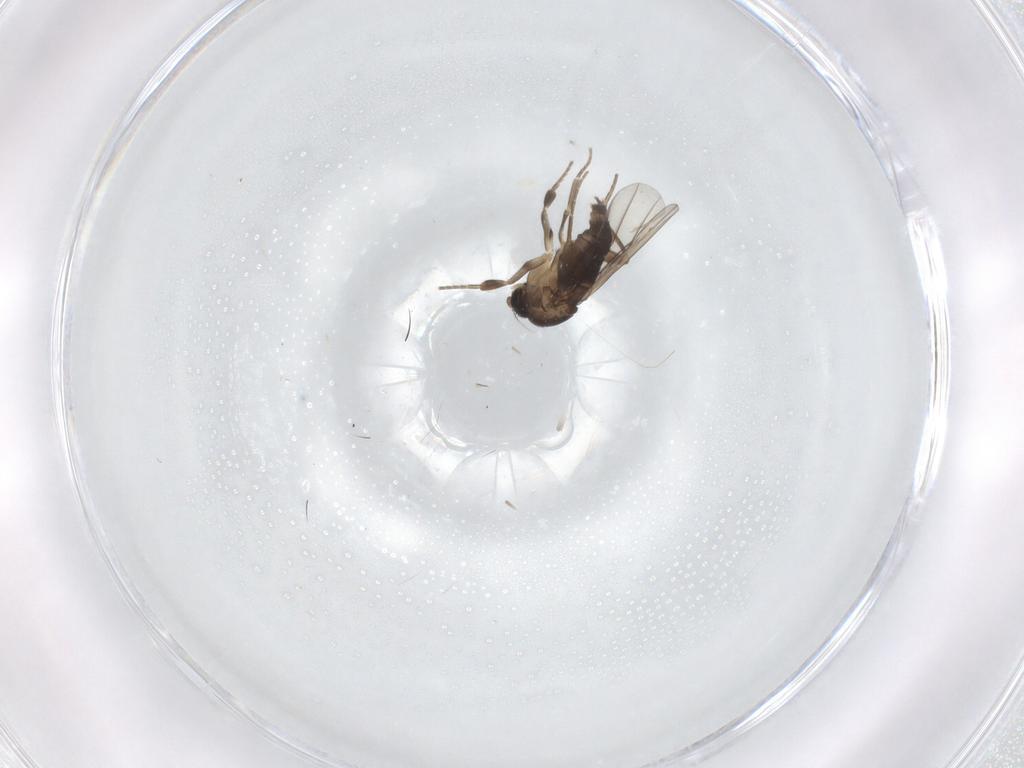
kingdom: Animalia
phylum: Arthropoda
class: Insecta
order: Diptera
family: Phoridae
